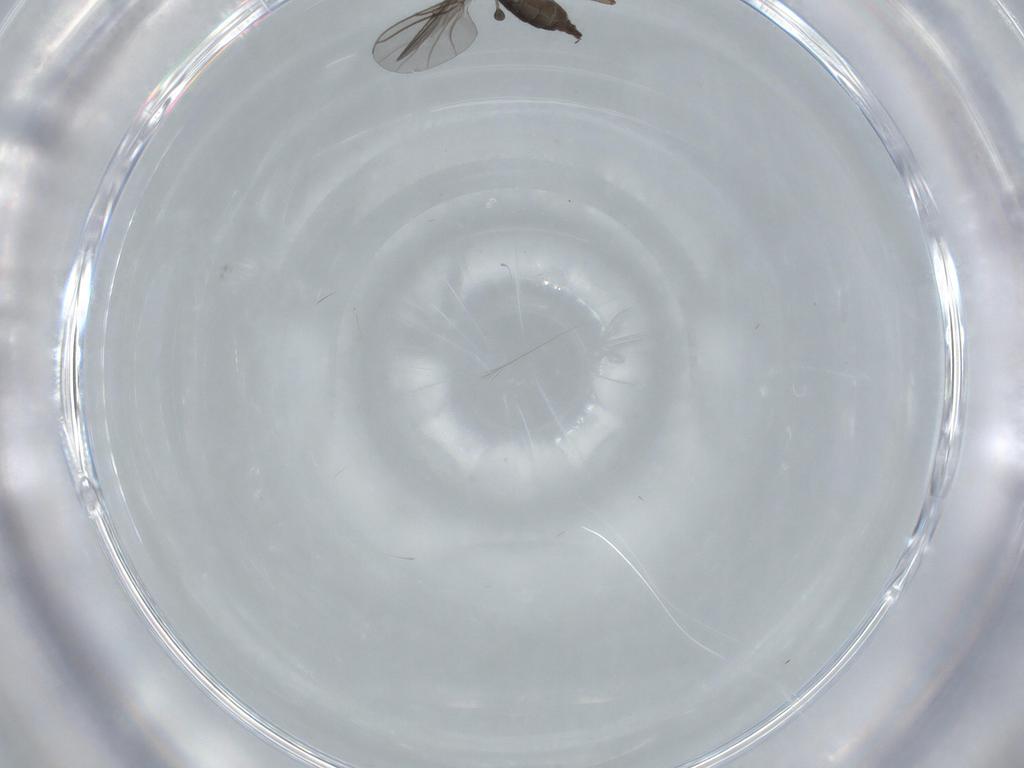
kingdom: Animalia
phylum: Arthropoda
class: Insecta
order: Diptera
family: Sciaridae
